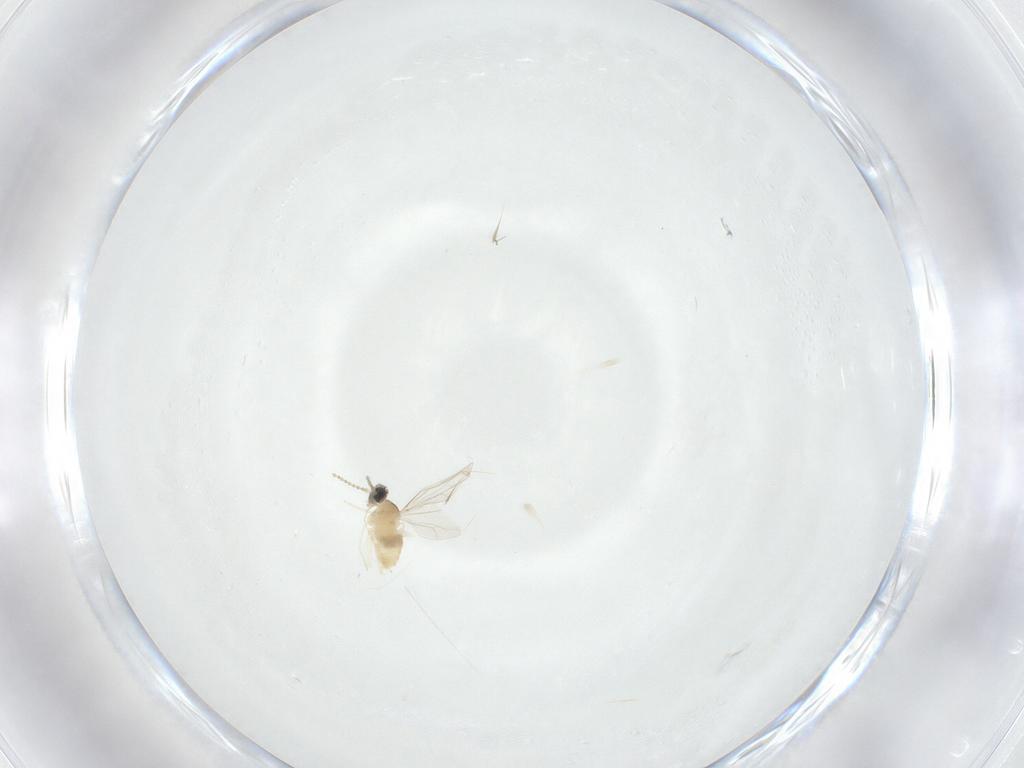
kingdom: Animalia
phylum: Arthropoda
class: Insecta
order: Diptera
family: Cecidomyiidae
